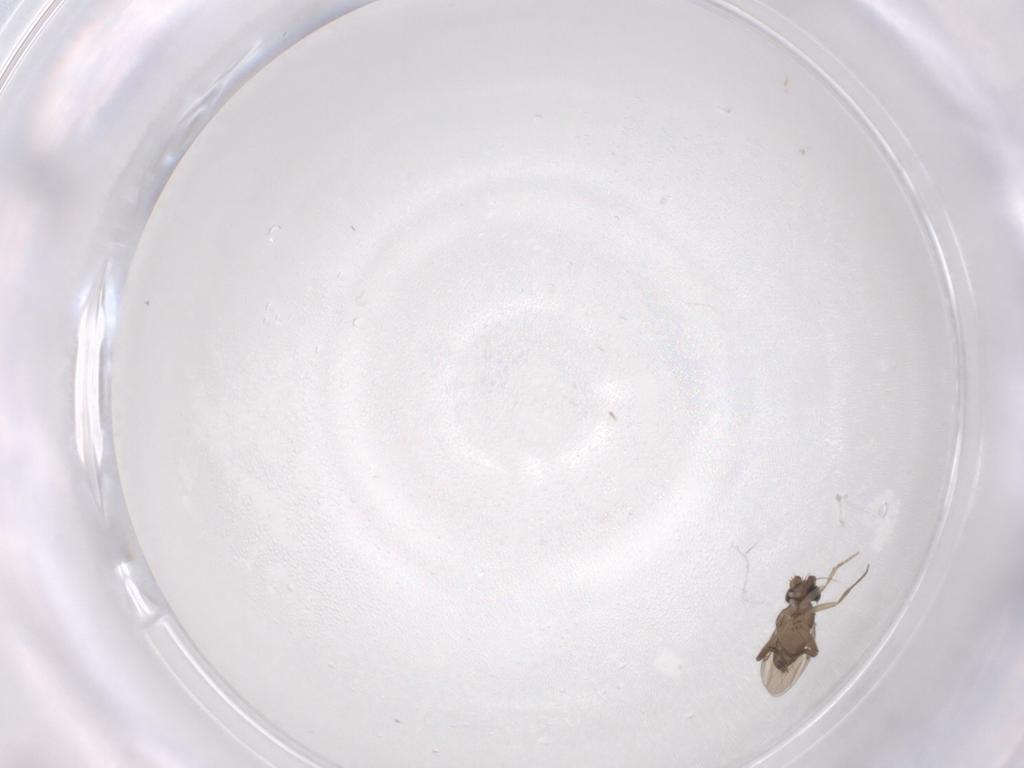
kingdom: Animalia
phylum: Arthropoda
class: Insecta
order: Diptera
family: Phoridae
